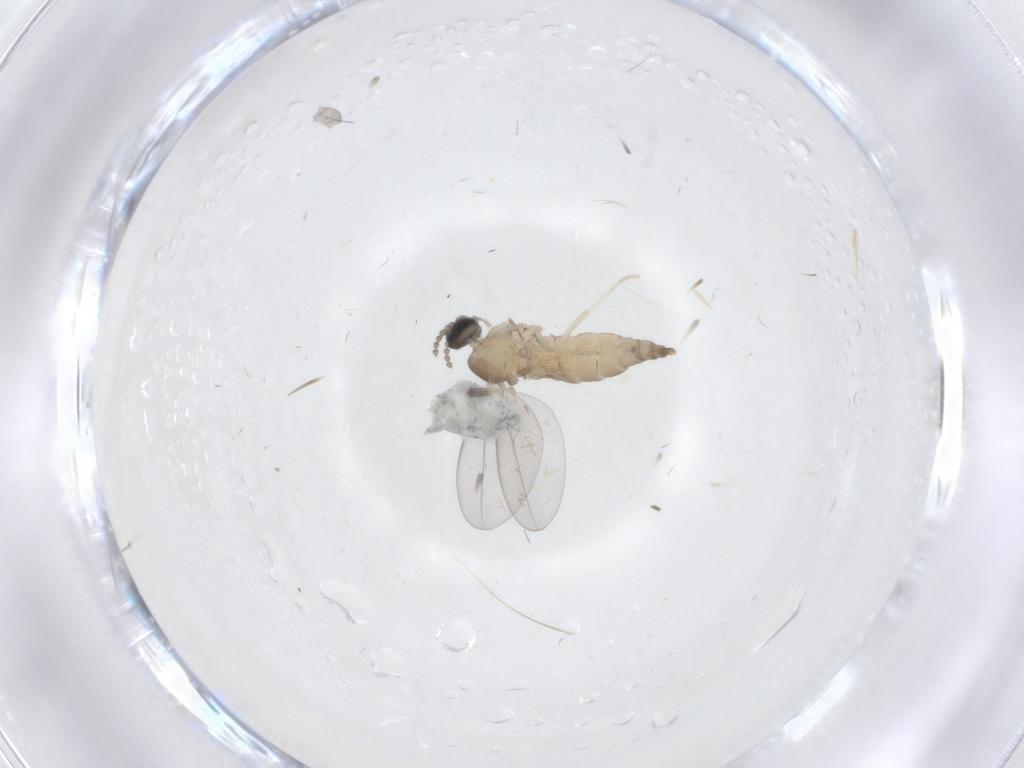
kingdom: Animalia
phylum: Arthropoda
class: Insecta
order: Diptera
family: Cecidomyiidae
